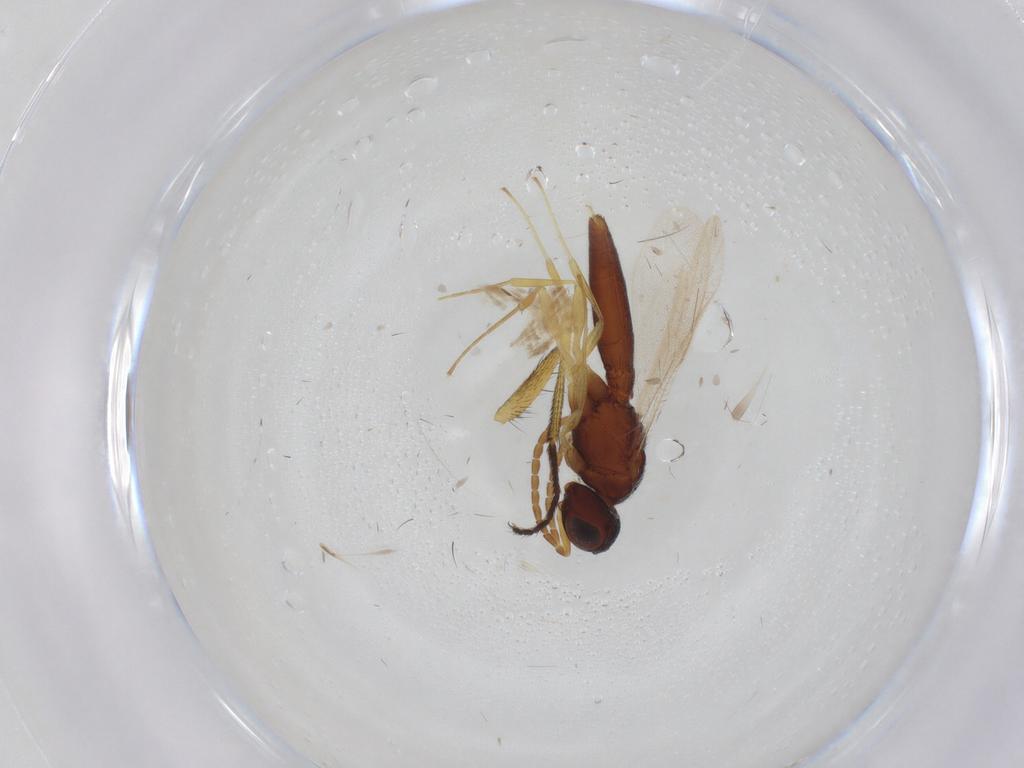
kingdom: Animalia
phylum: Arthropoda
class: Insecta
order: Diptera
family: Muscidae
